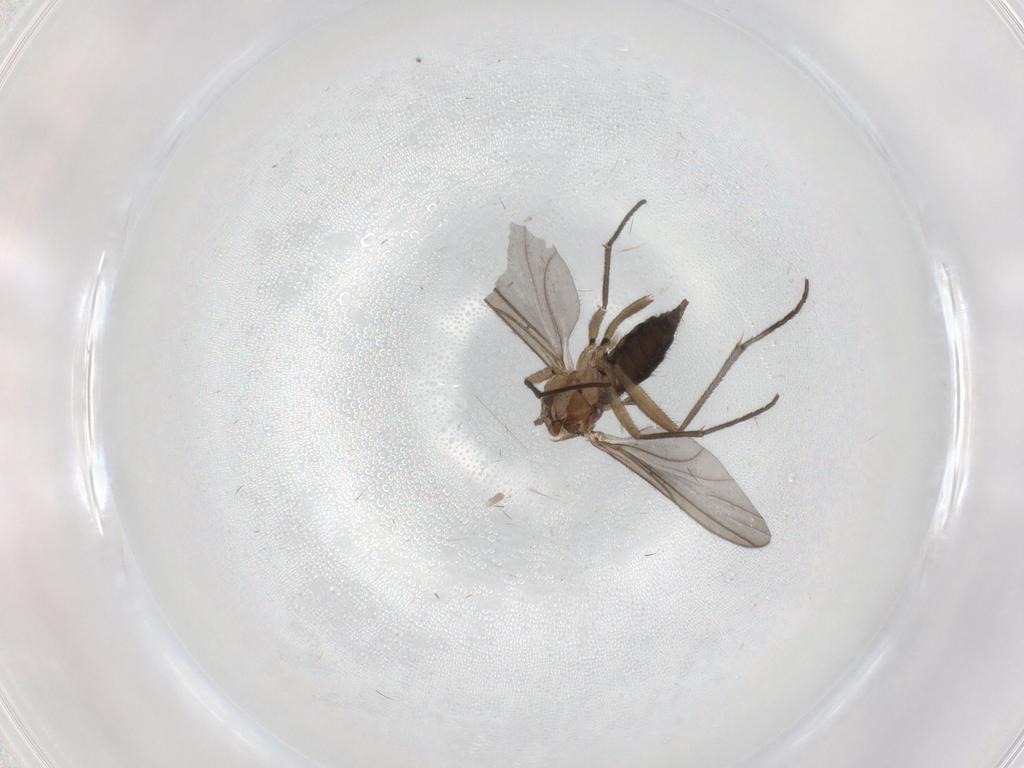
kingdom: Animalia
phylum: Arthropoda
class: Insecta
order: Diptera
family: Sciaridae
